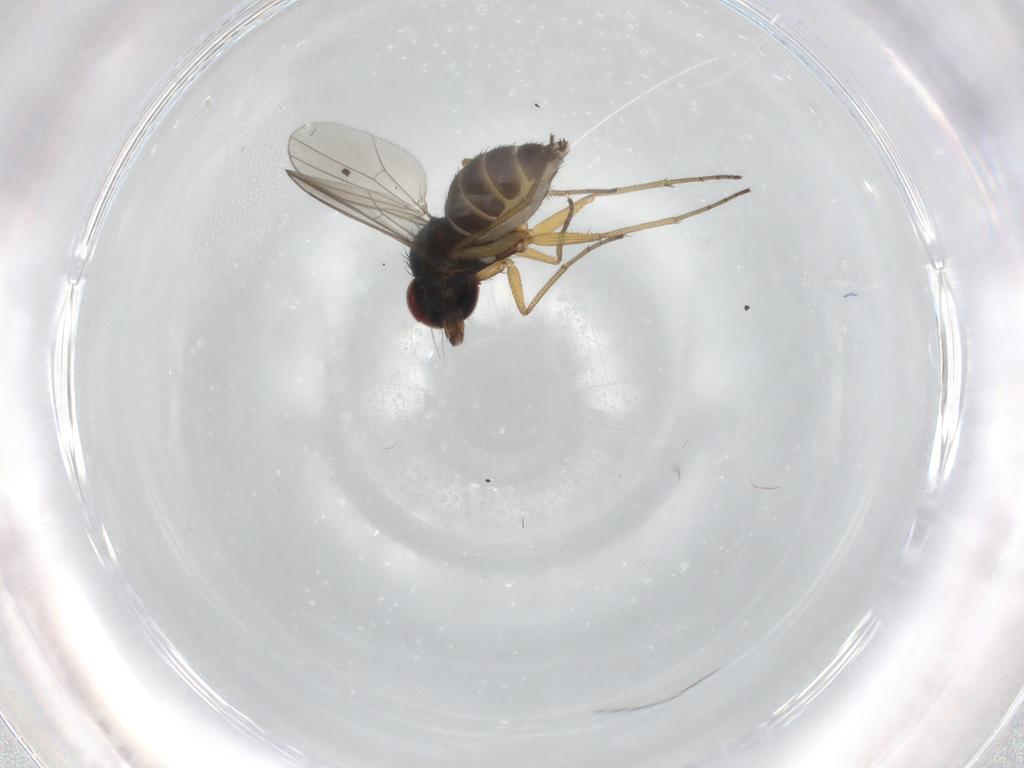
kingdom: Animalia
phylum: Arthropoda
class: Insecta
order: Diptera
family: Dolichopodidae
